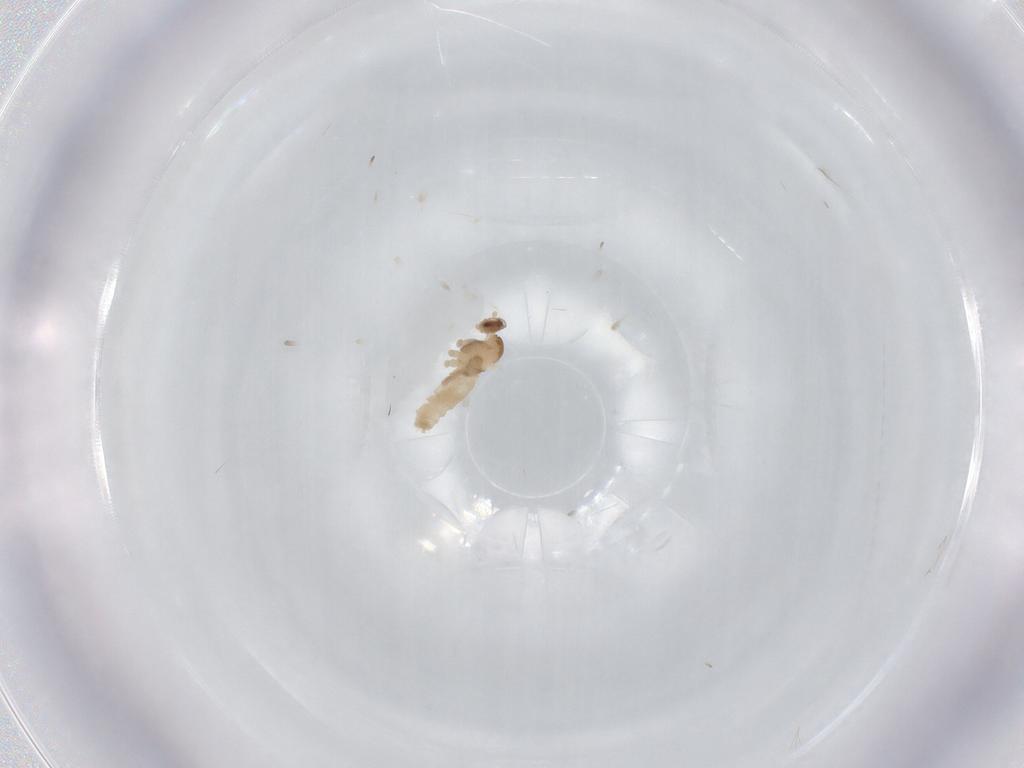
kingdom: Animalia
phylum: Arthropoda
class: Insecta
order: Diptera
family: Cecidomyiidae
